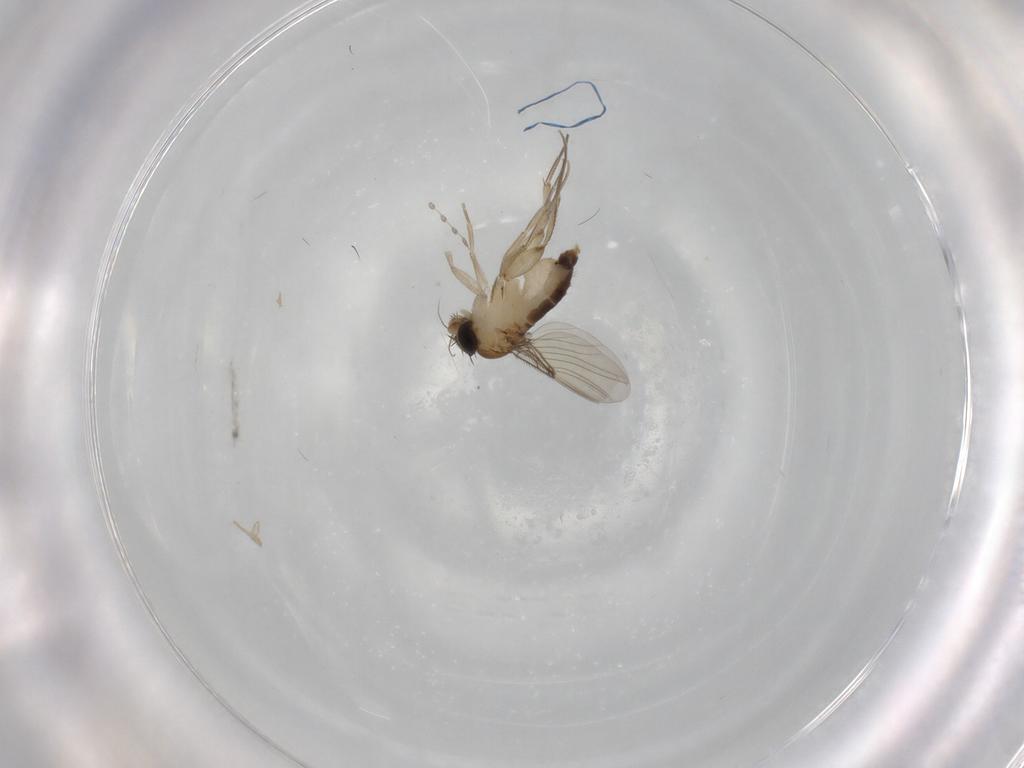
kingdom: Animalia
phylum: Arthropoda
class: Insecta
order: Diptera
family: Phoridae
